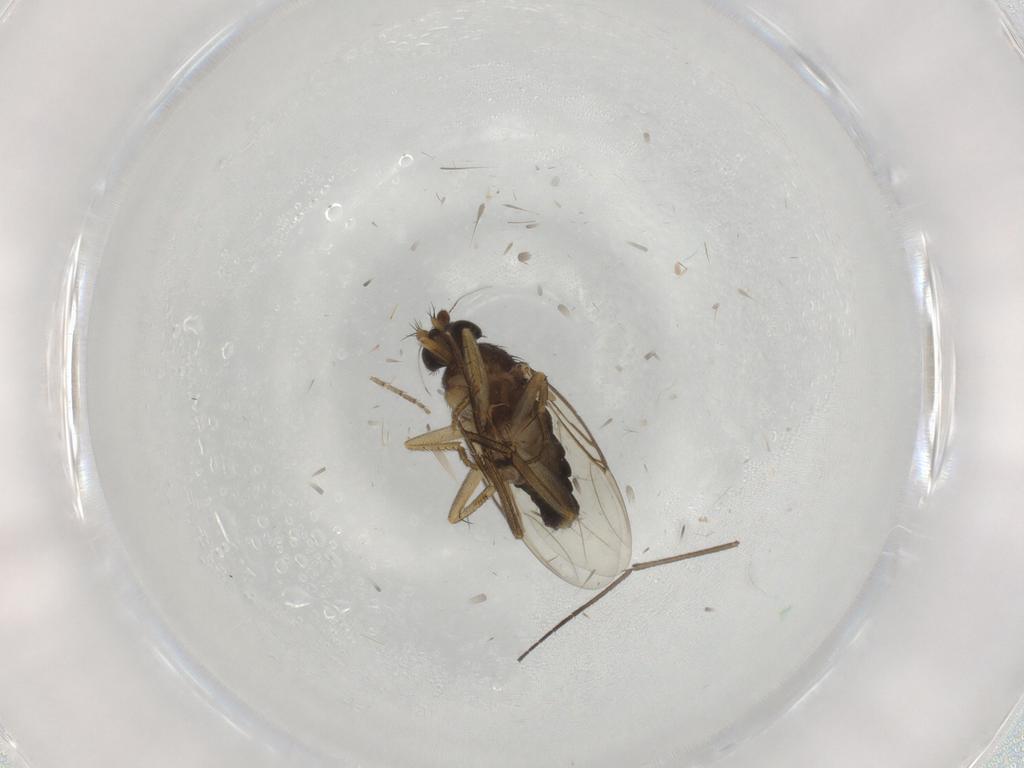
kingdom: Animalia
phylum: Arthropoda
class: Insecta
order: Diptera
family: Phoridae
